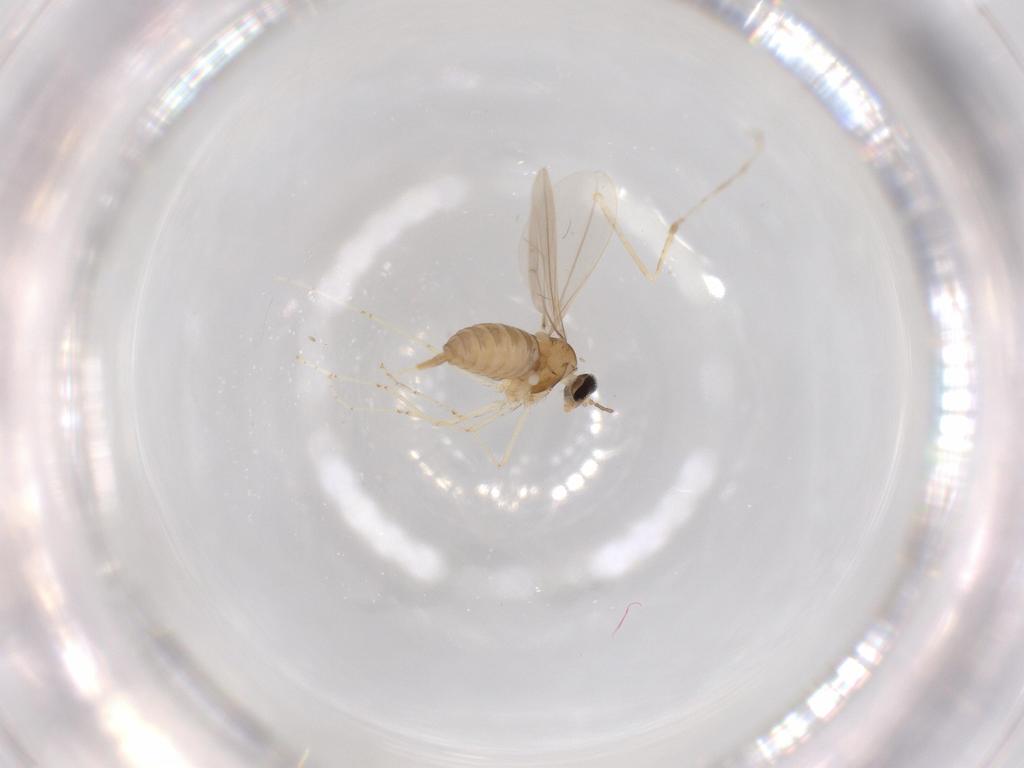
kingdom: Animalia
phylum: Arthropoda
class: Insecta
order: Diptera
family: Cecidomyiidae
